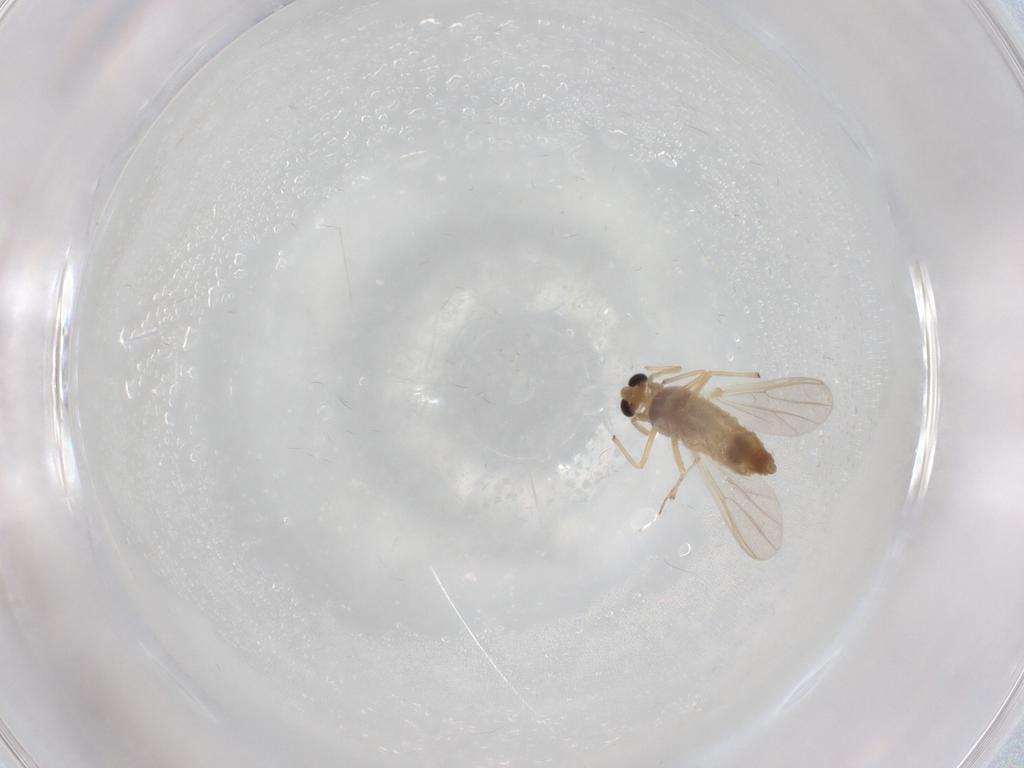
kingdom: Animalia
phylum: Arthropoda
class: Insecta
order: Diptera
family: Chironomidae
